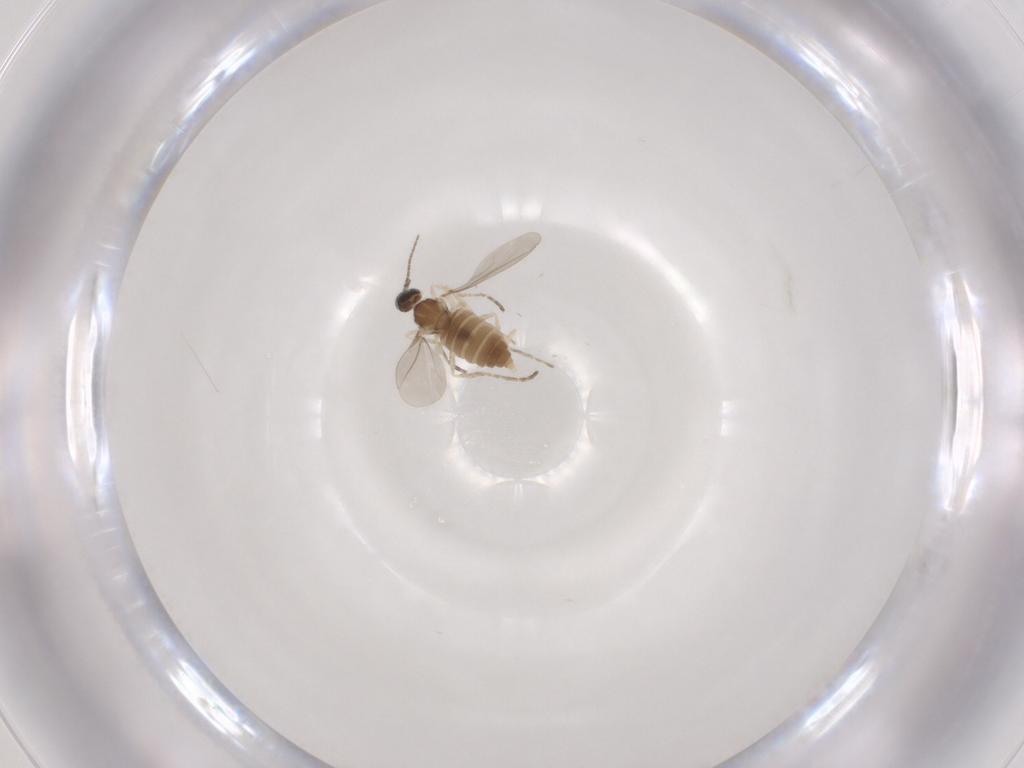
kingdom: Animalia
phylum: Arthropoda
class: Insecta
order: Diptera
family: Cecidomyiidae
